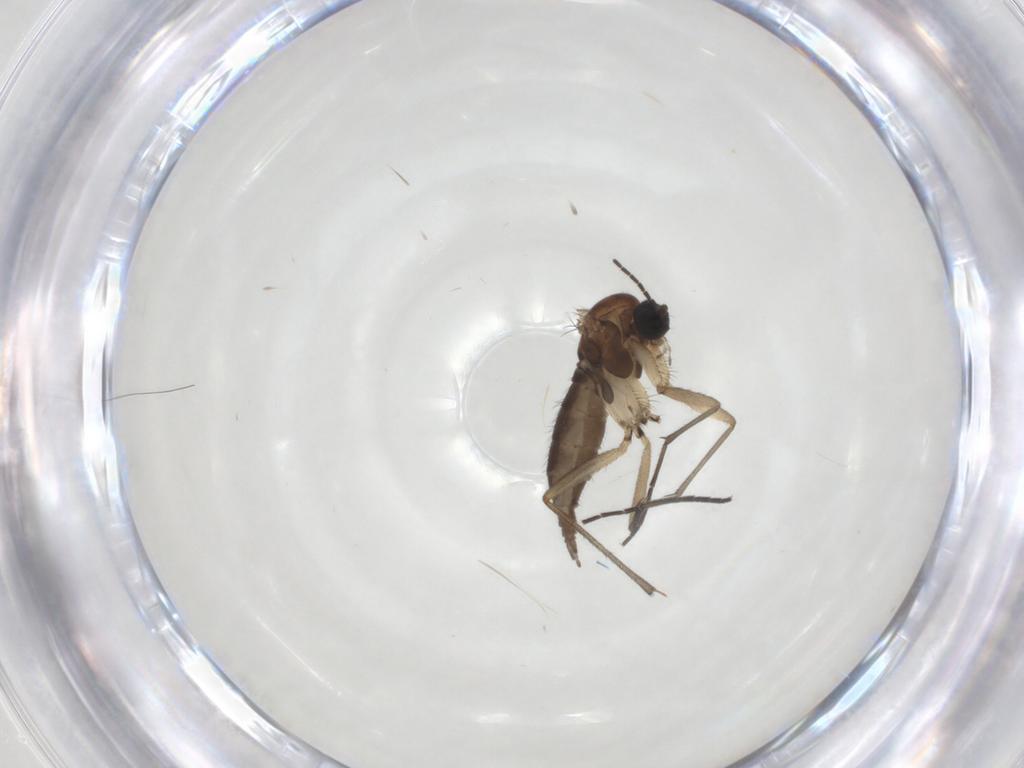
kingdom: Animalia
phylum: Arthropoda
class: Insecta
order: Diptera
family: Sciaridae
